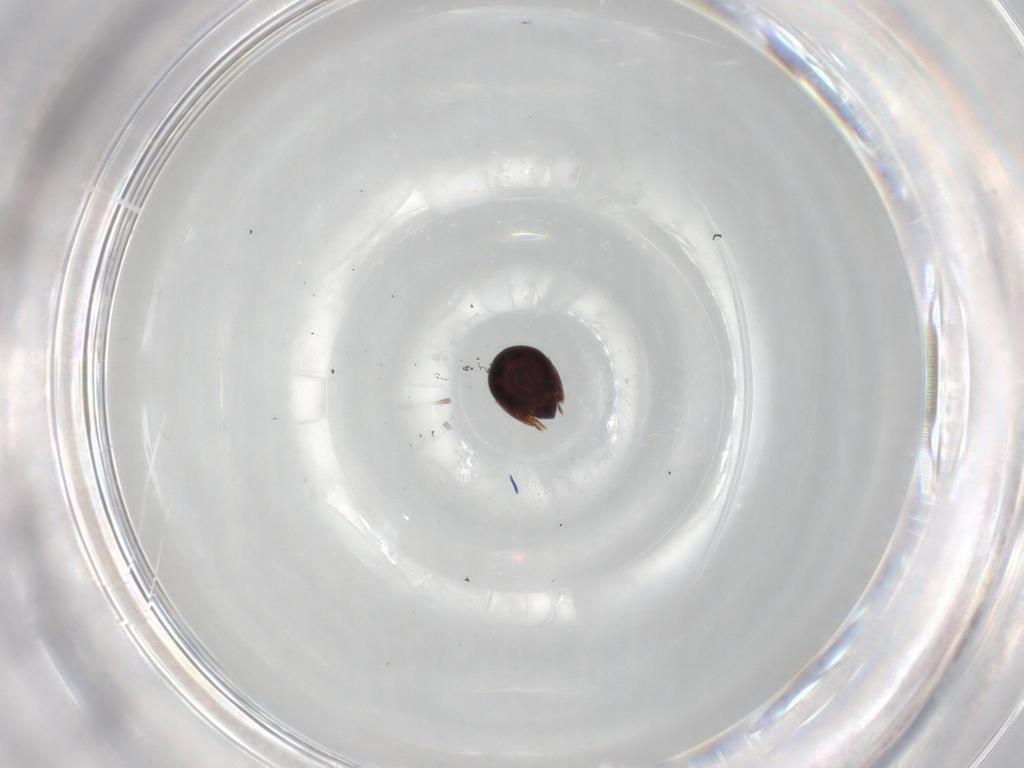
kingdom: Animalia
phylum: Arthropoda
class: Arachnida
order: Sarcoptiformes
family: Ceratozetidae
